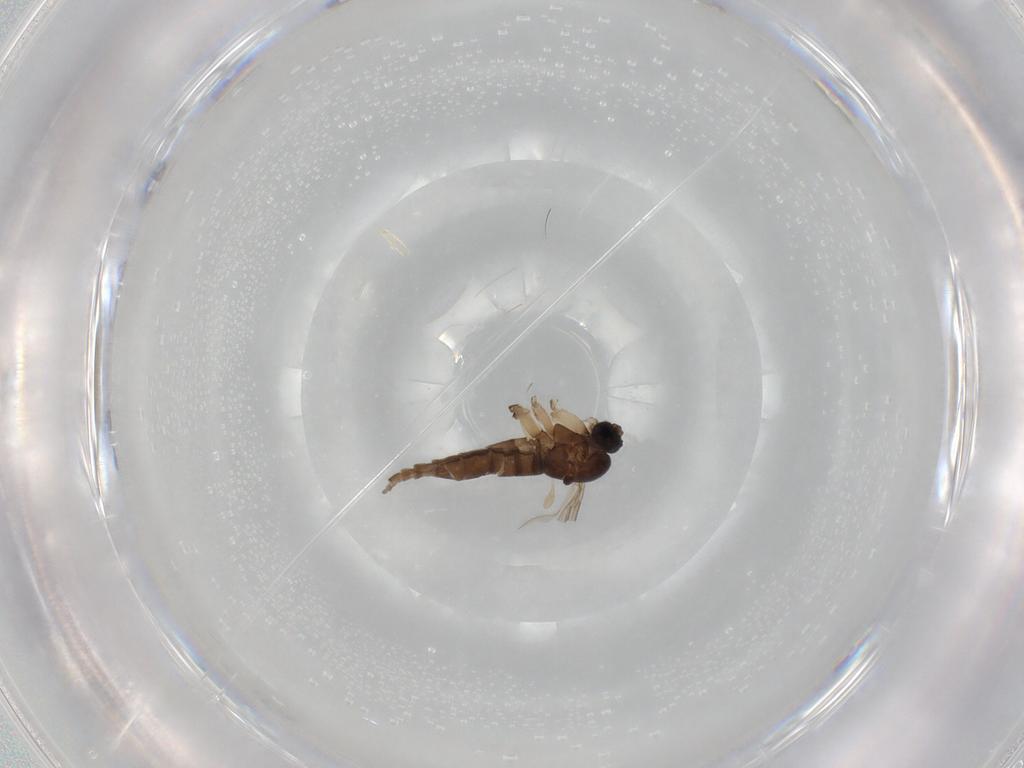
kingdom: Animalia
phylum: Arthropoda
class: Insecta
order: Diptera
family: Sciaridae
